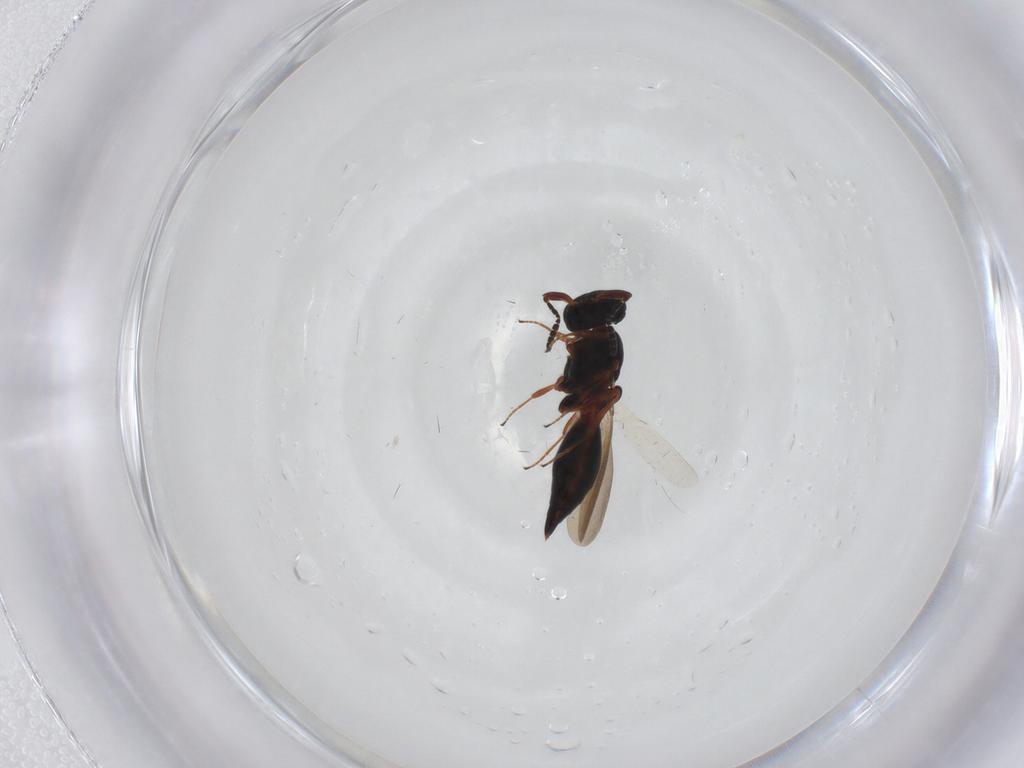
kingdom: Animalia
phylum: Arthropoda
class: Insecta
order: Hymenoptera
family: Platygastridae
